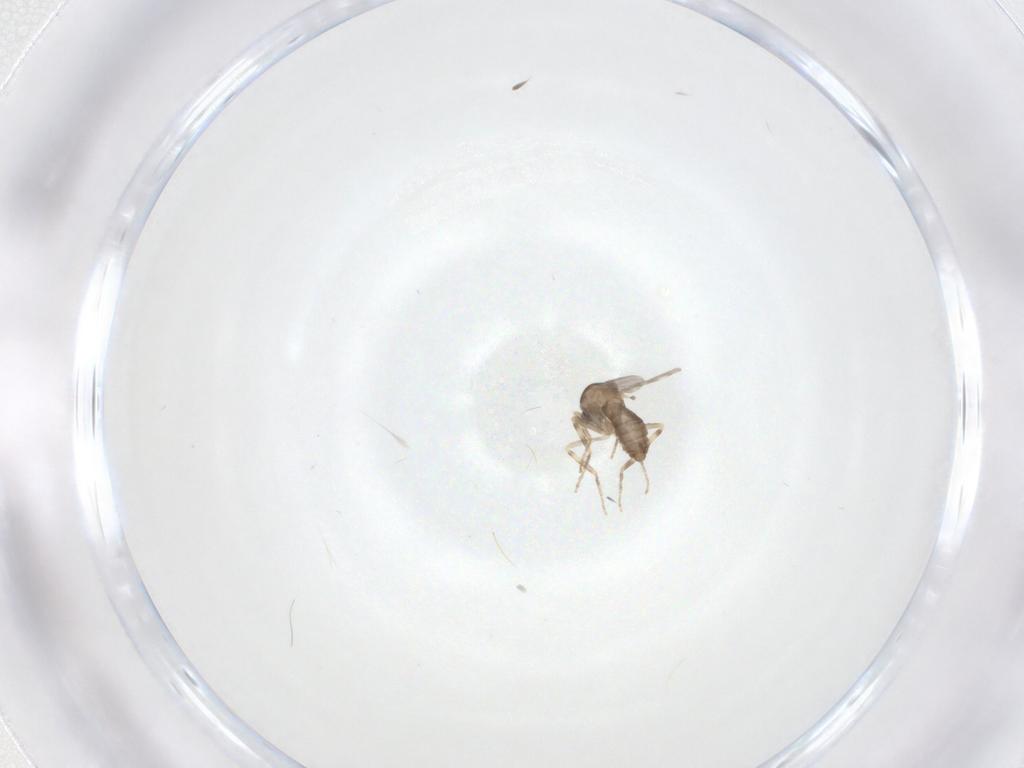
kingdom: Animalia
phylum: Arthropoda
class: Insecta
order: Diptera
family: Ceratopogonidae
